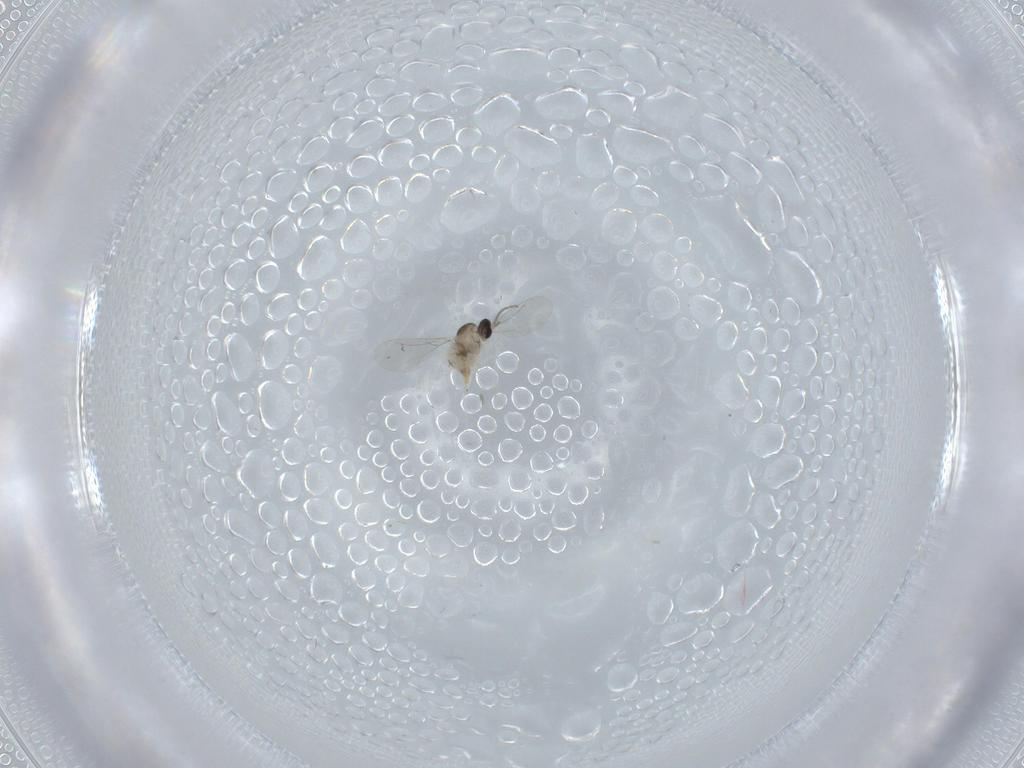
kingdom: Animalia
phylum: Arthropoda
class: Insecta
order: Diptera
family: Cecidomyiidae
